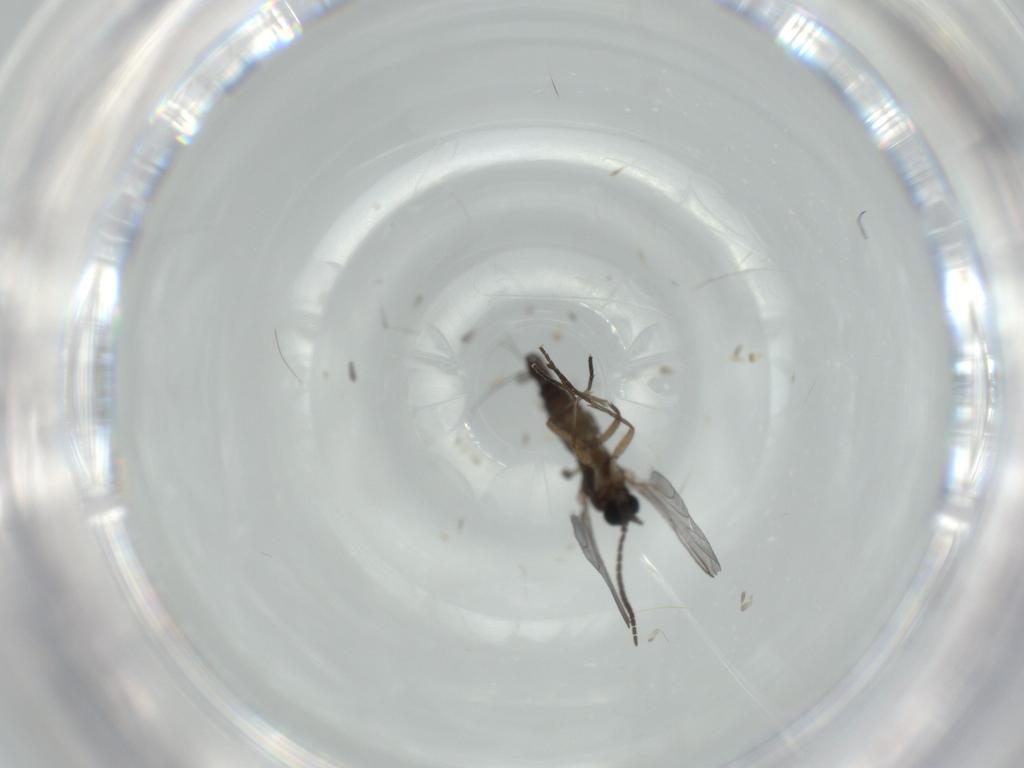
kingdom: Animalia
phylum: Arthropoda
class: Insecta
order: Diptera
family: Sciaridae
